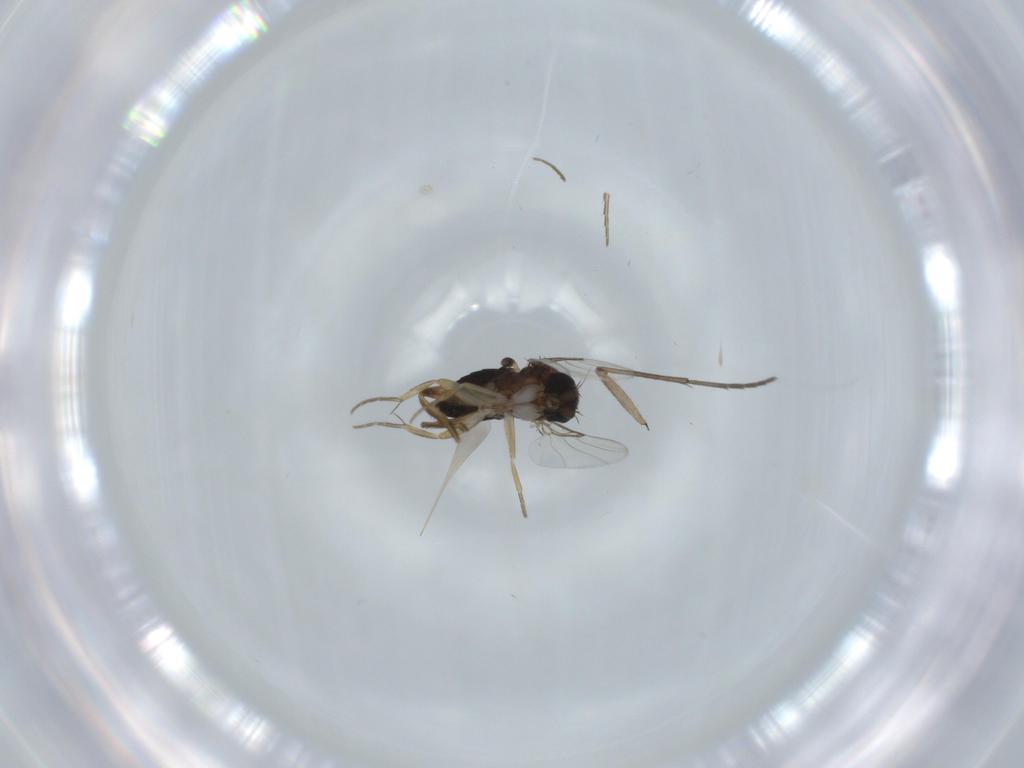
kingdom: Animalia
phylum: Arthropoda
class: Insecta
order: Diptera
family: Phoridae
